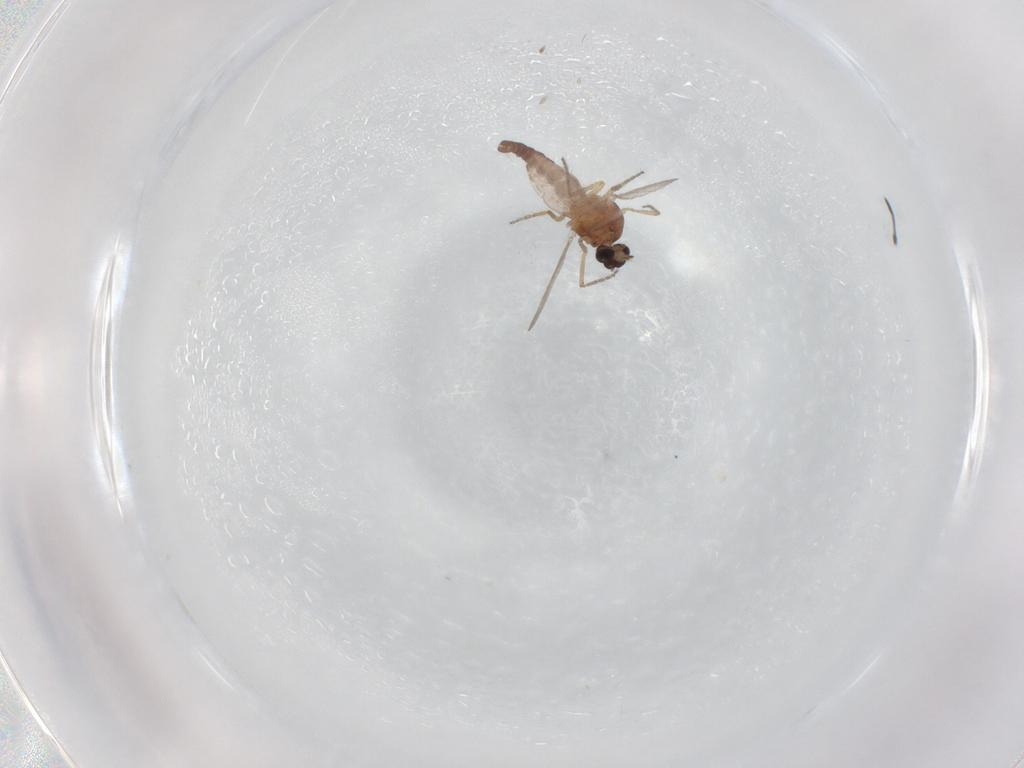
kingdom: Animalia
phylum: Arthropoda
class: Insecta
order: Diptera
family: Ceratopogonidae
